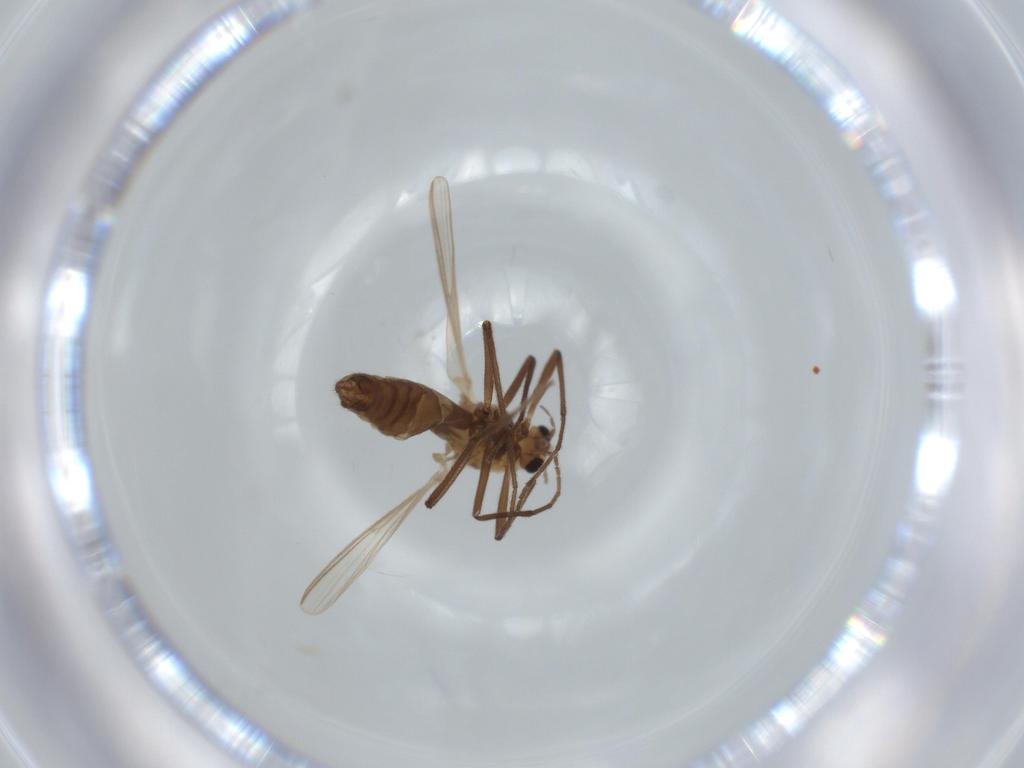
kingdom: Animalia
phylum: Arthropoda
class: Insecta
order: Diptera
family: Chironomidae
